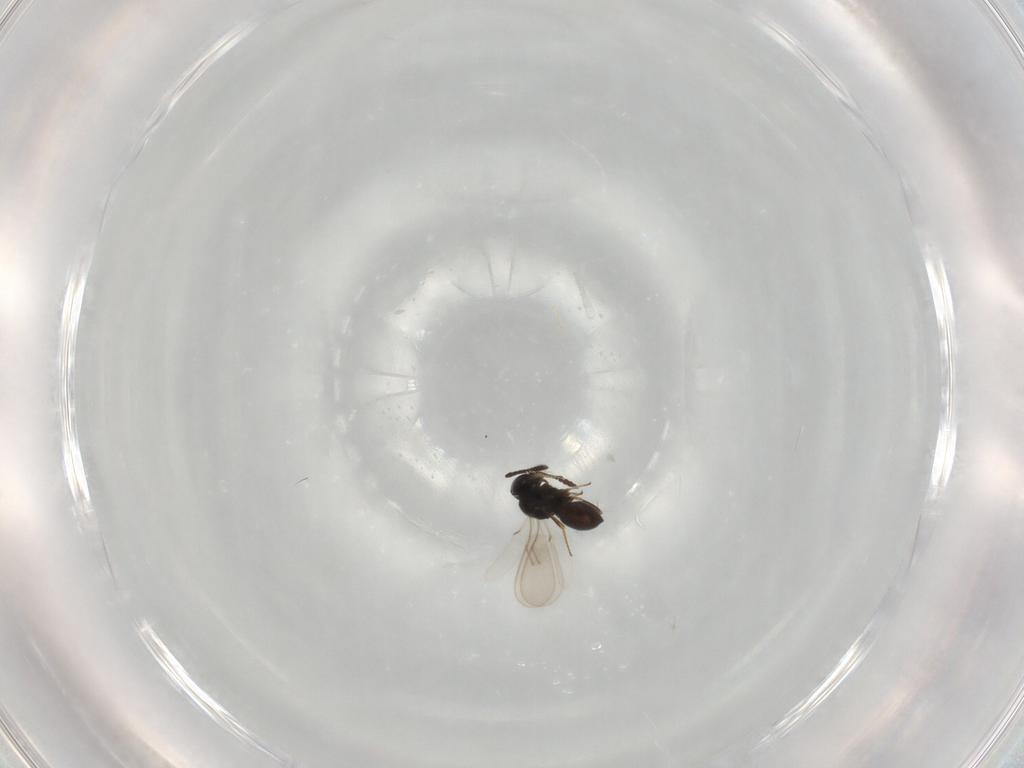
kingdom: Animalia
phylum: Arthropoda
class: Insecta
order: Hymenoptera
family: Scelionidae
